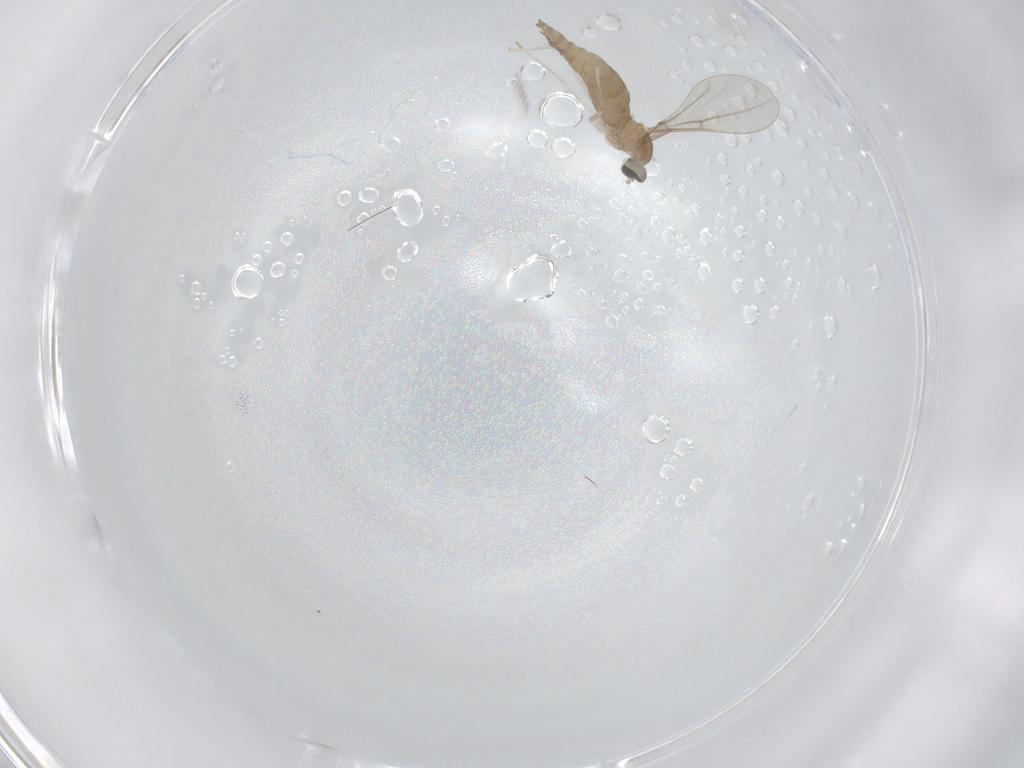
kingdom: Animalia
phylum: Arthropoda
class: Insecta
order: Diptera
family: Cecidomyiidae
